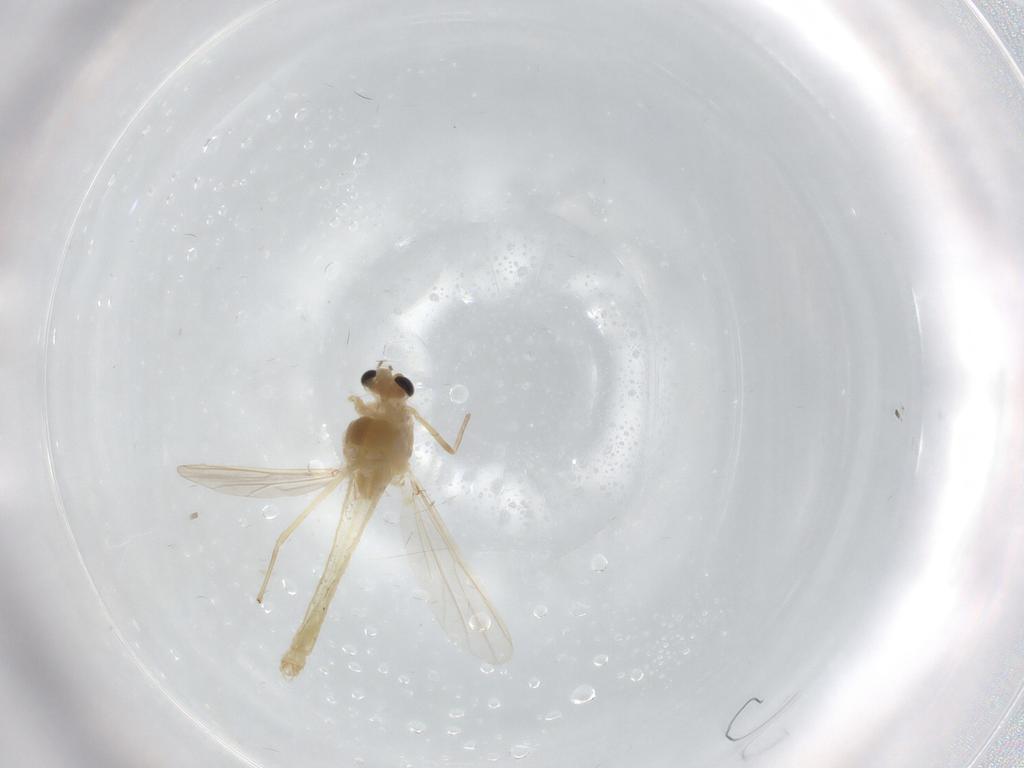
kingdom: Animalia
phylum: Arthropoda
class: Insecta
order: Diptera
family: Chironomidae
